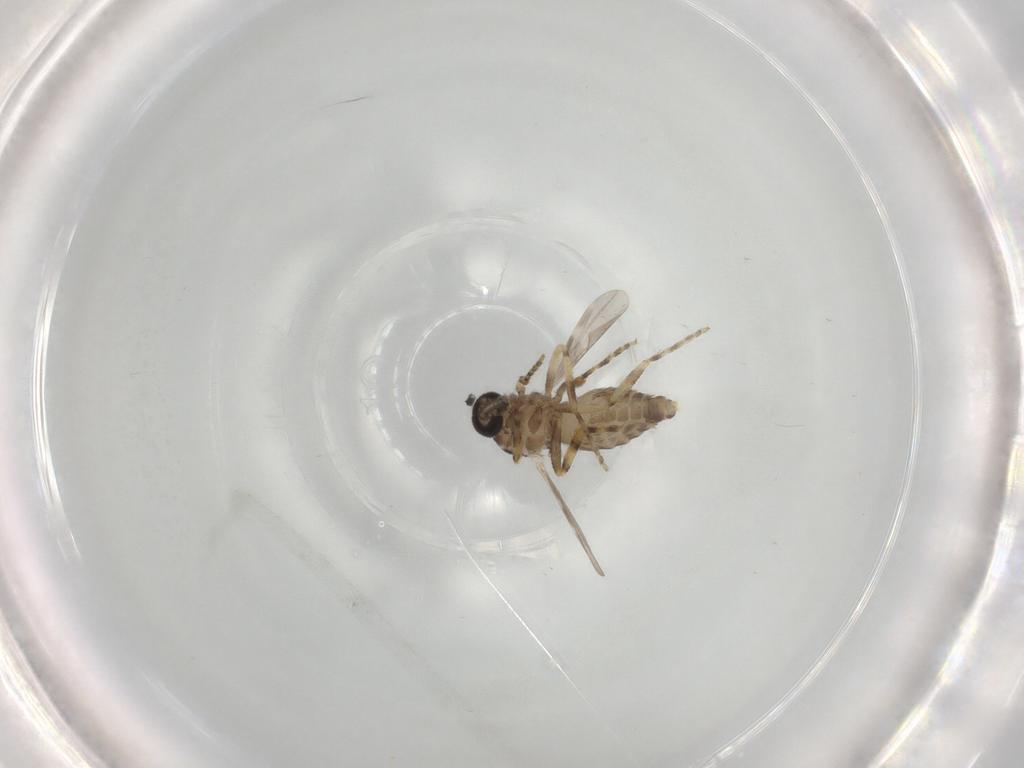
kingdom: Animalia
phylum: Arthropoda
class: Insecta
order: Diptera
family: Ceratopogonidae
